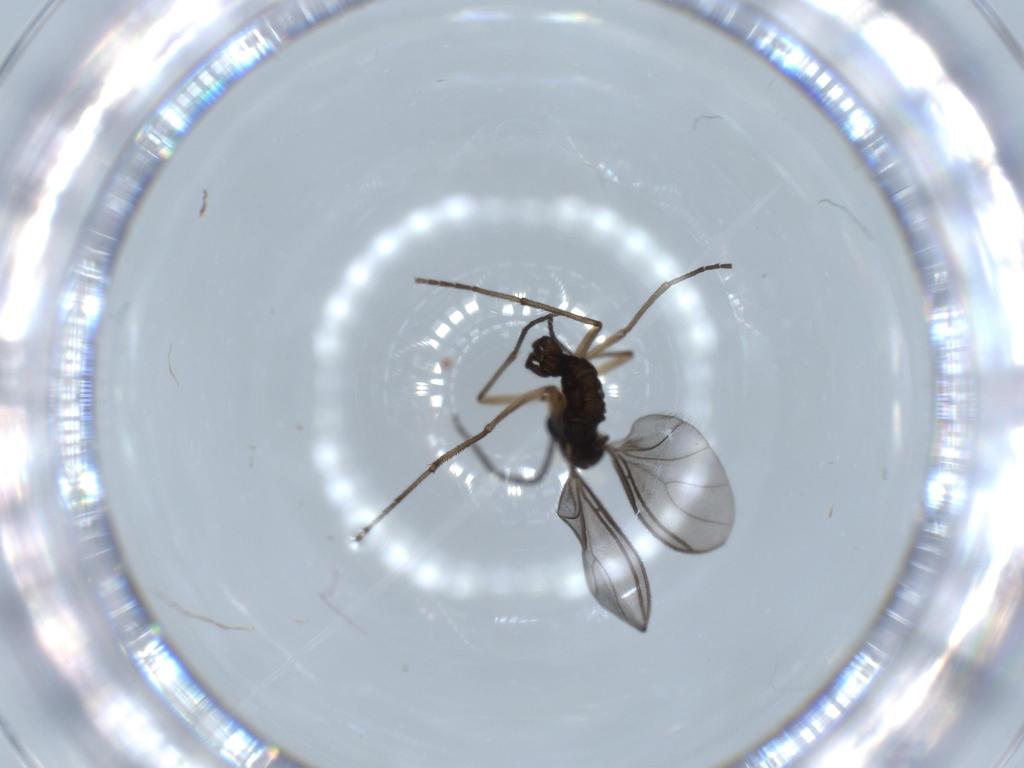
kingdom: Animalia
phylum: Arthropoda
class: Insecta
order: Diptera
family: Sciaridae
